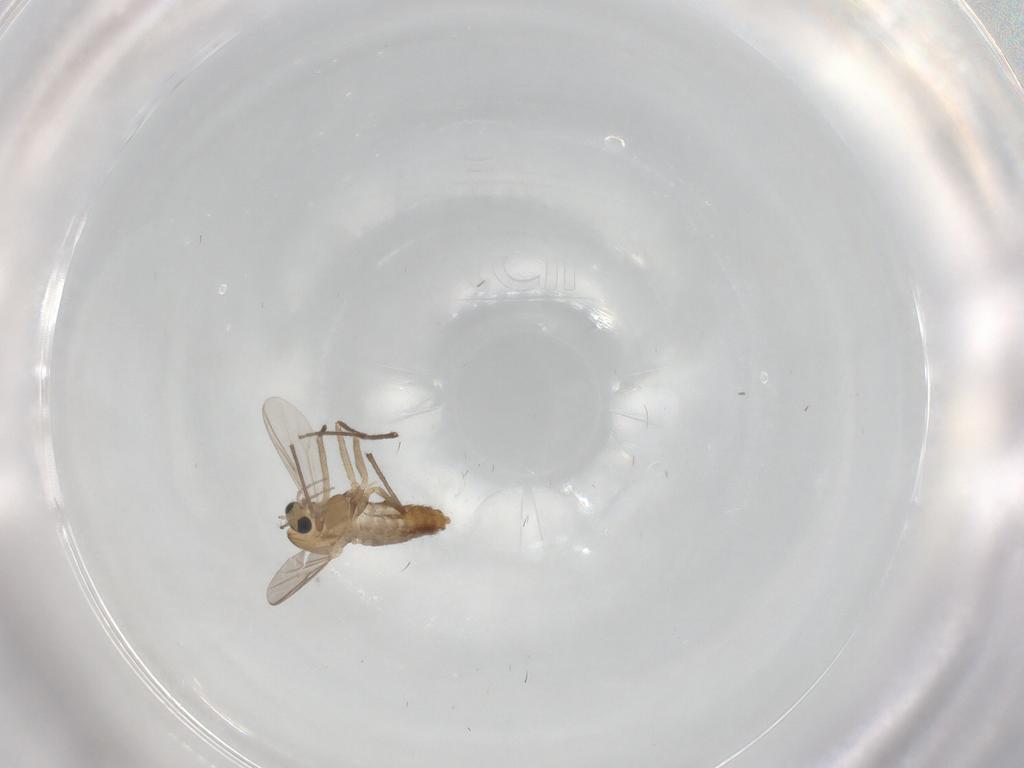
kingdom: Animalia
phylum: Arthropoda
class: Insecta
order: Diptera
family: Chironomidae
